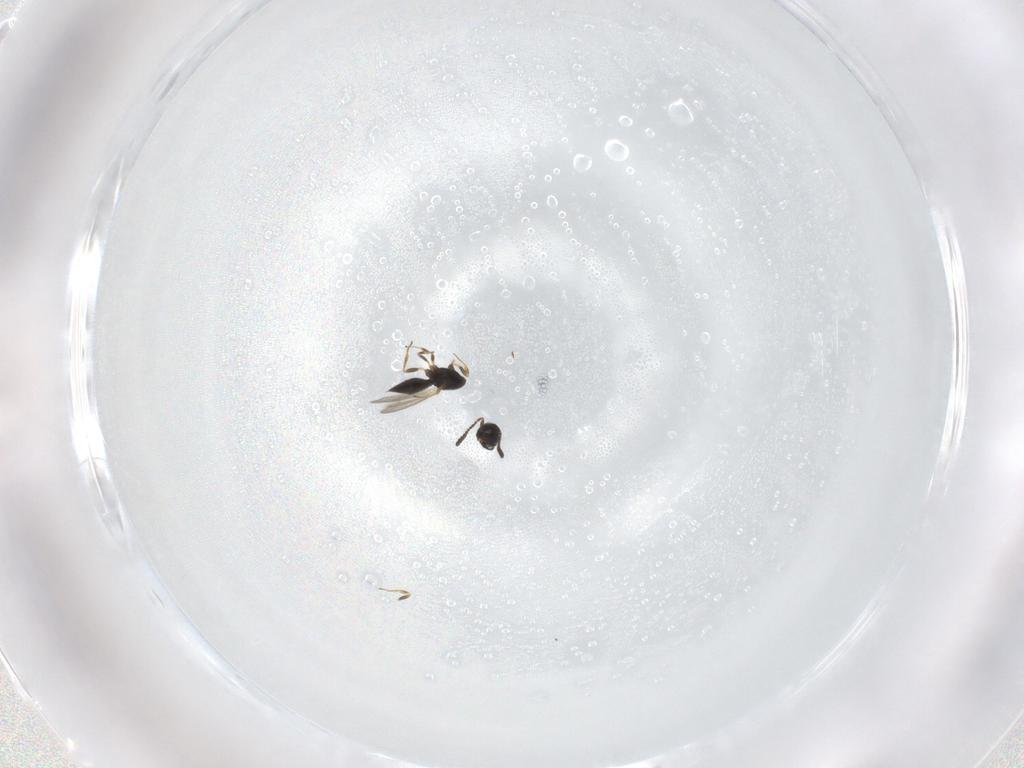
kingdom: Animalia
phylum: Arthropoda
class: Insecta
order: Hymenoptera
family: Scelionidae
